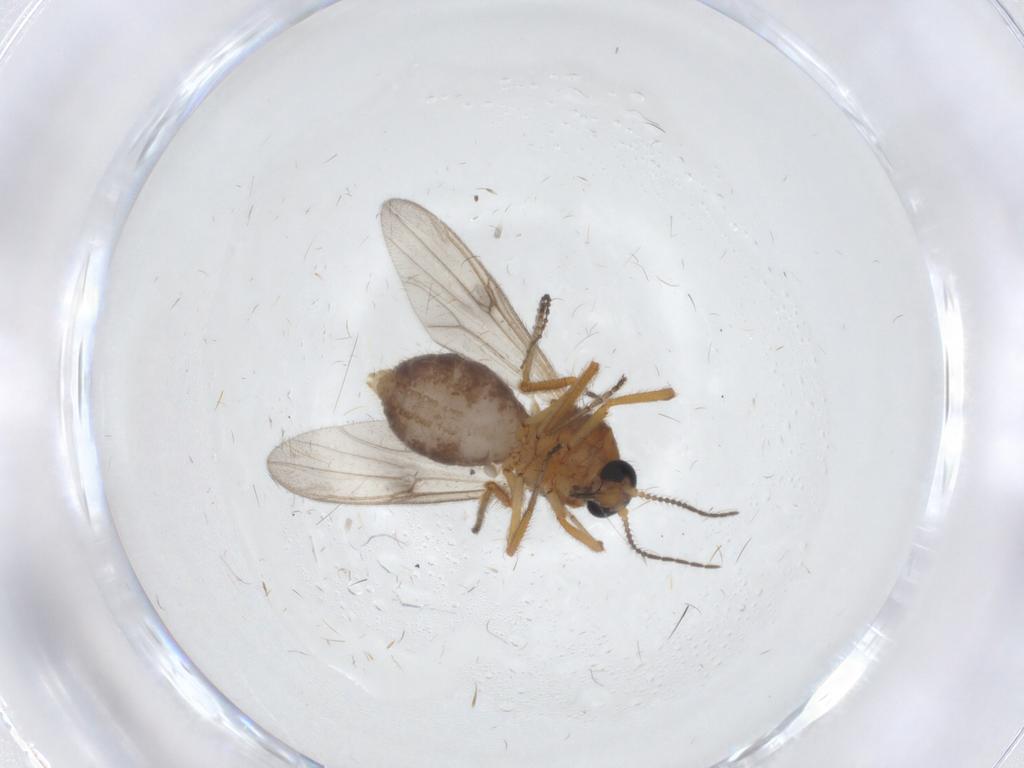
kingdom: Animalia
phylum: Arthropoda
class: Insecta
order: Diptera
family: Ceratopogonidae
